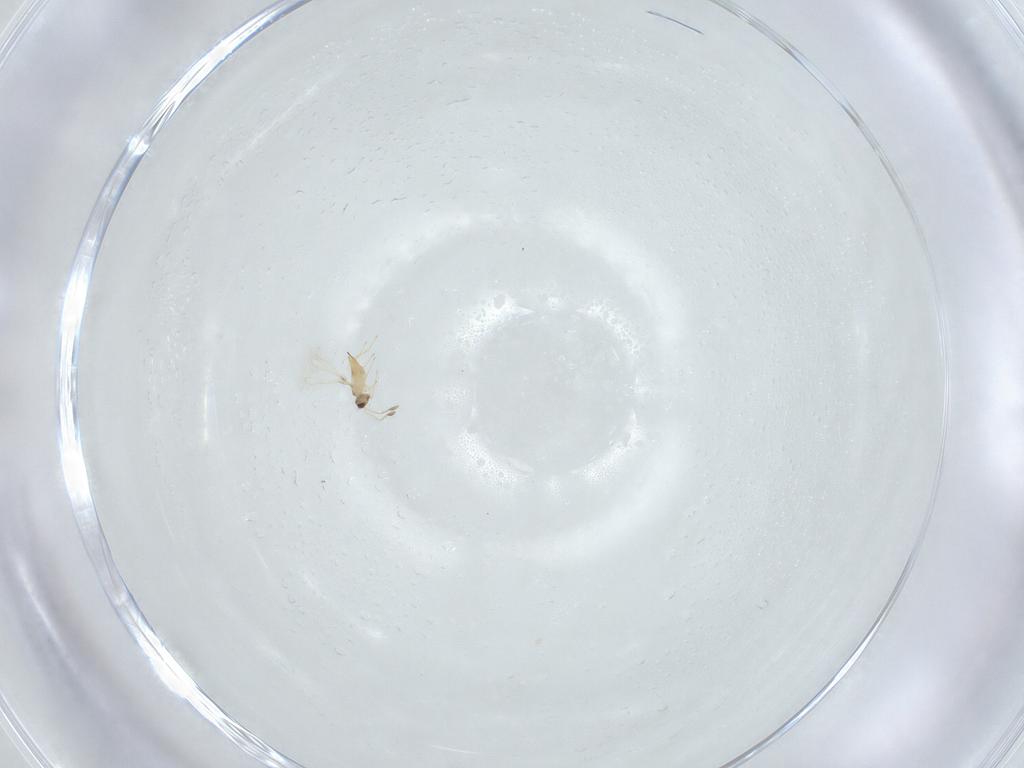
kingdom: Animalia
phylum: Arthropoda
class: Insecta
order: Hymenoptera
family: Mymaridae
